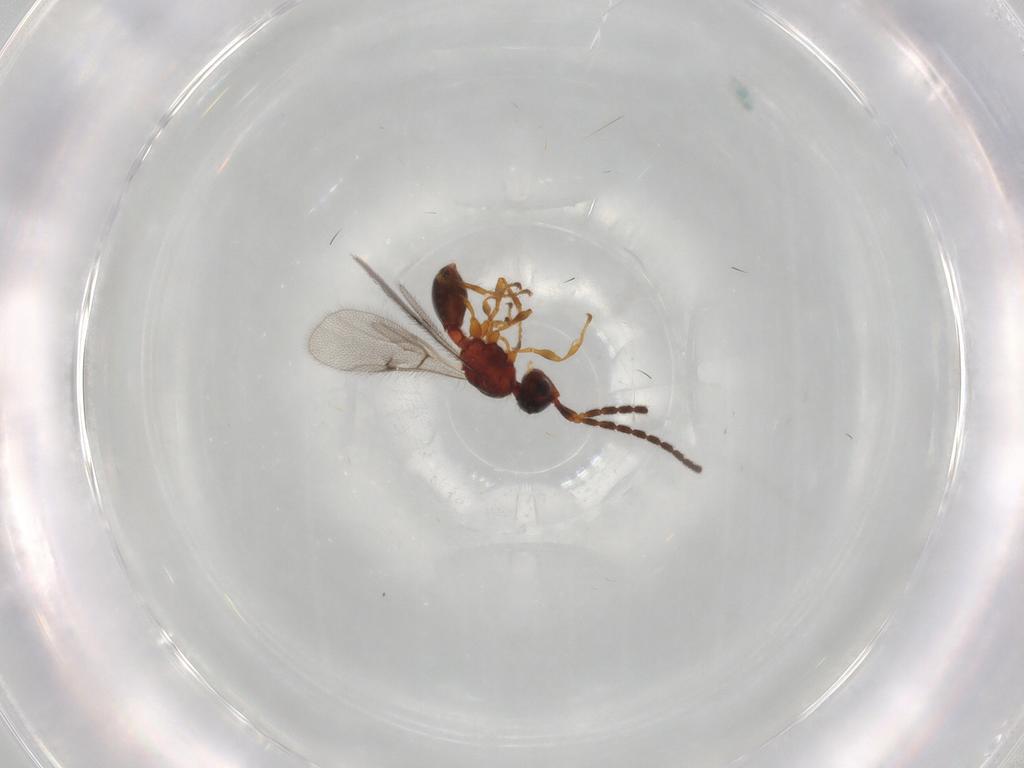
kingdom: Animalia
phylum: Arthropoda
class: Insecta
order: Hymenoptera
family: Diapriidae
